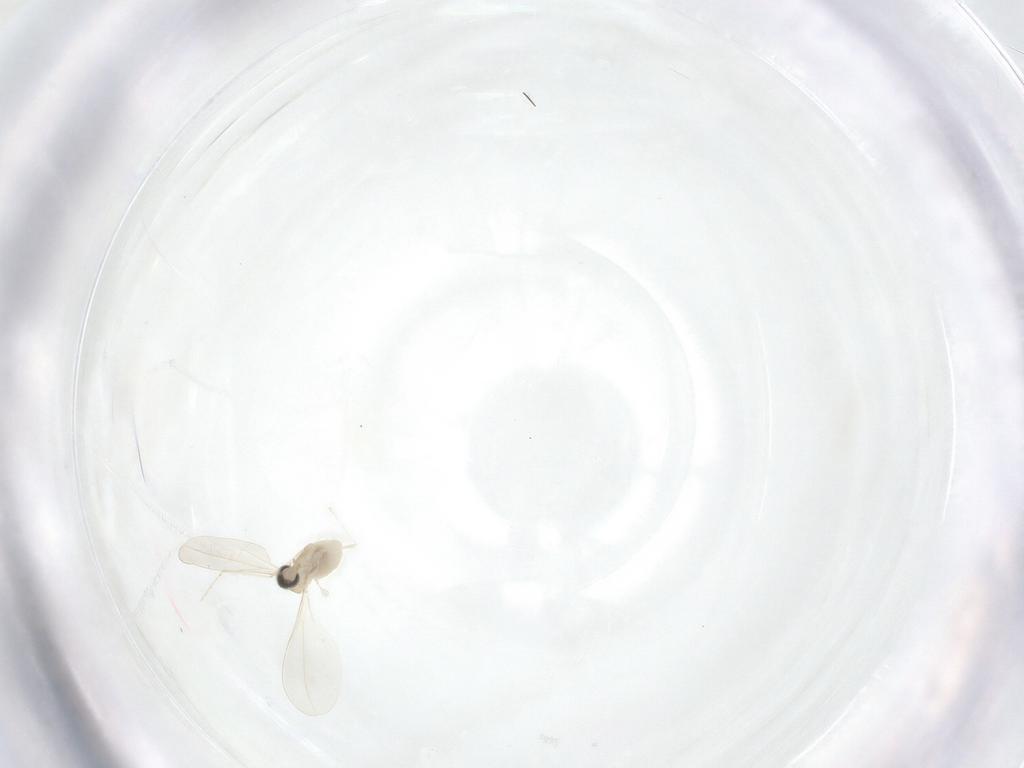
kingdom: Animalia
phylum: Arthropoda
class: Insecta
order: Diptera
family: Cecidomyiidae
